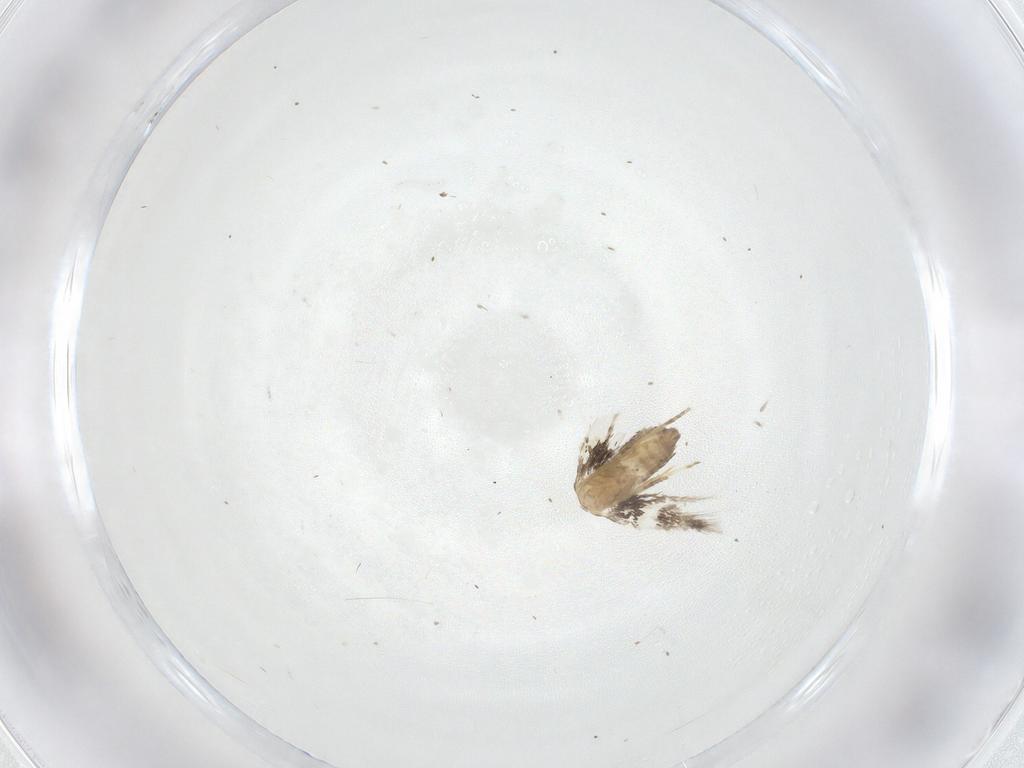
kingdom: Animalia
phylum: Arthropoda
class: Insecta
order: Lepidoptera
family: Nepticulidae
